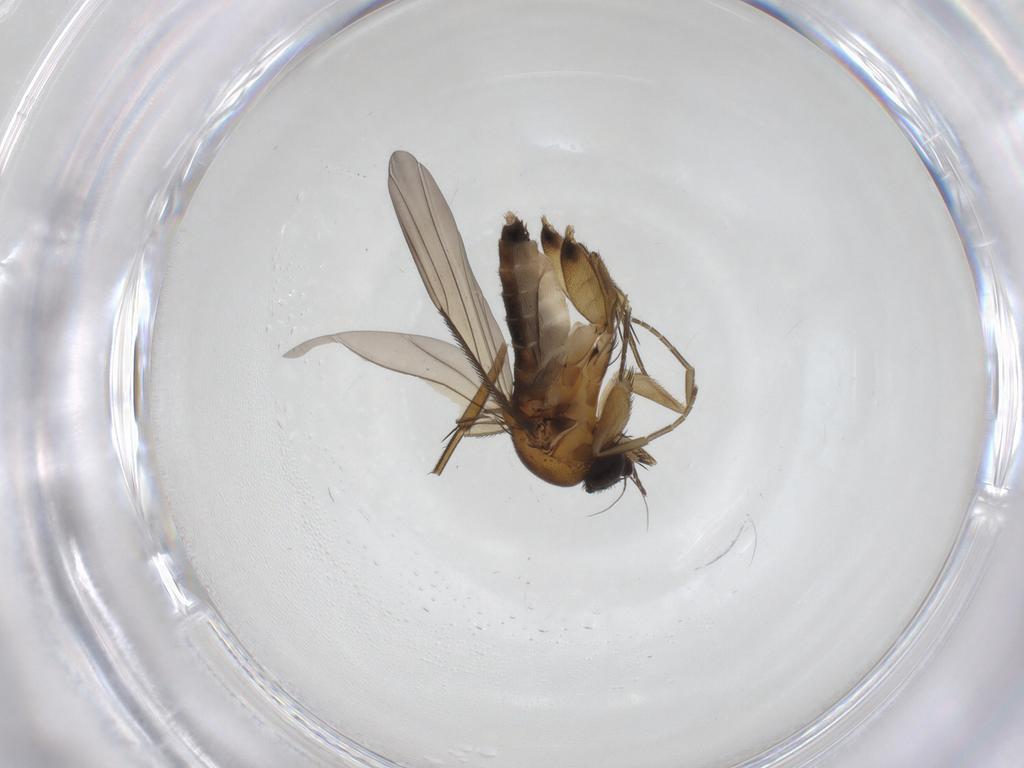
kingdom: Animalia
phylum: Arthropoda
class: Insecta
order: Diptera
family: Phoridae
